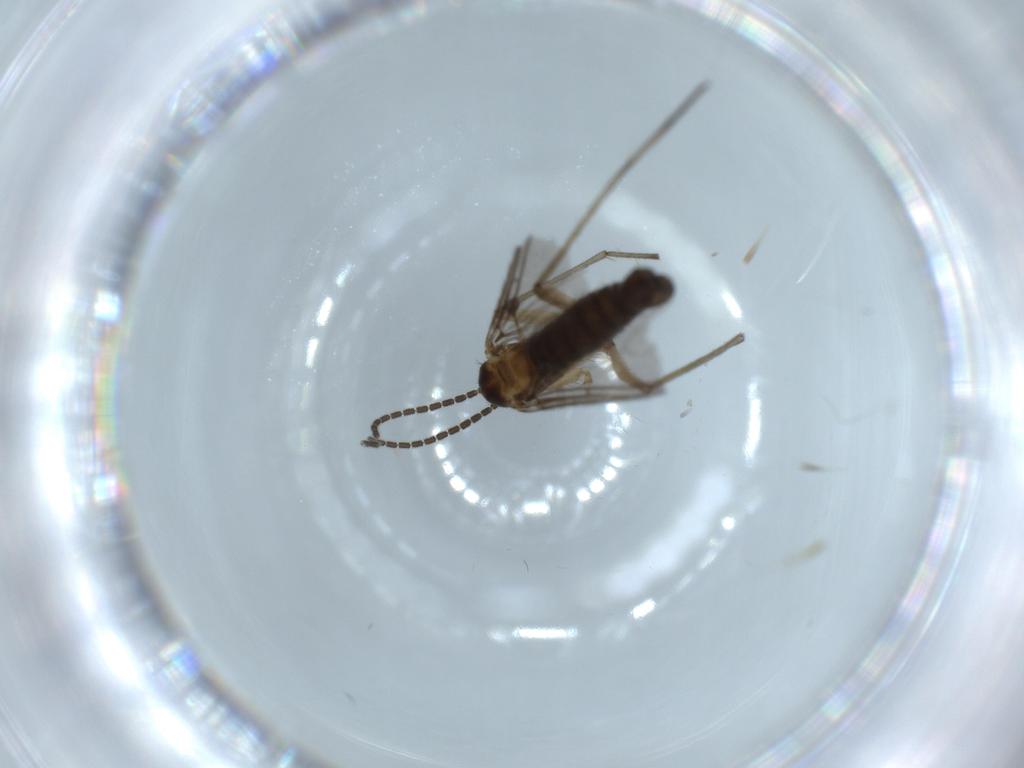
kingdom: Animalia
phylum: Arthropoda
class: Insecta
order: Diptera
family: Sciaridae
